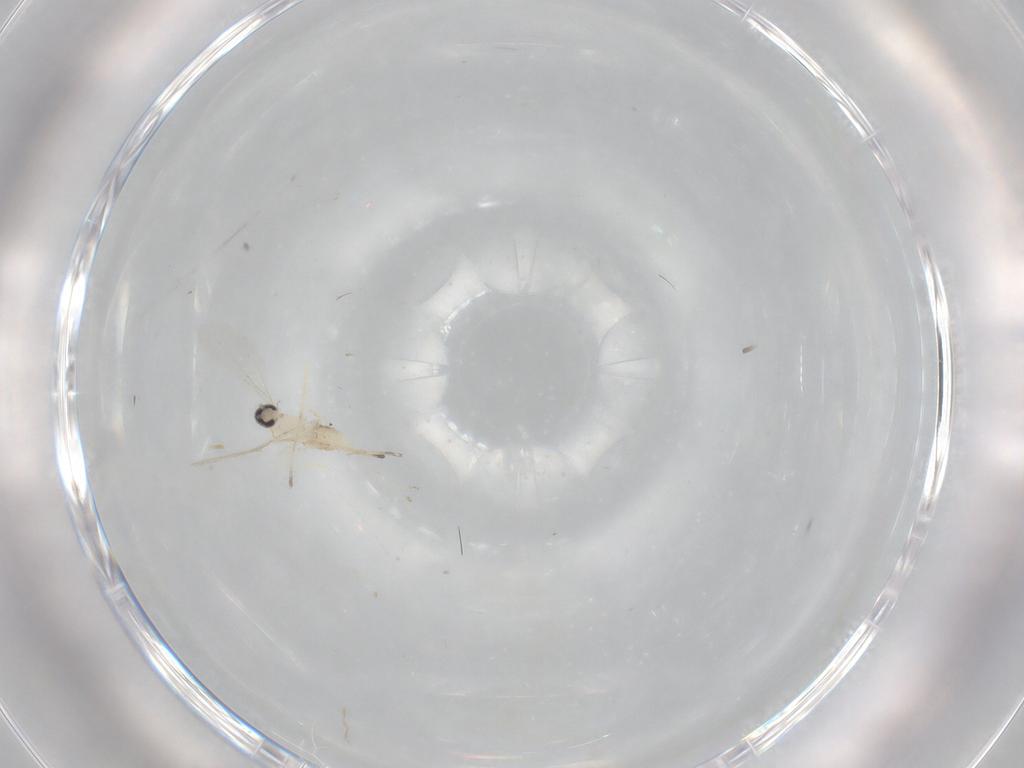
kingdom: Animalia
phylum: Arthropoda
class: Insecta
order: Diptera
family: Cecidomyiidae
